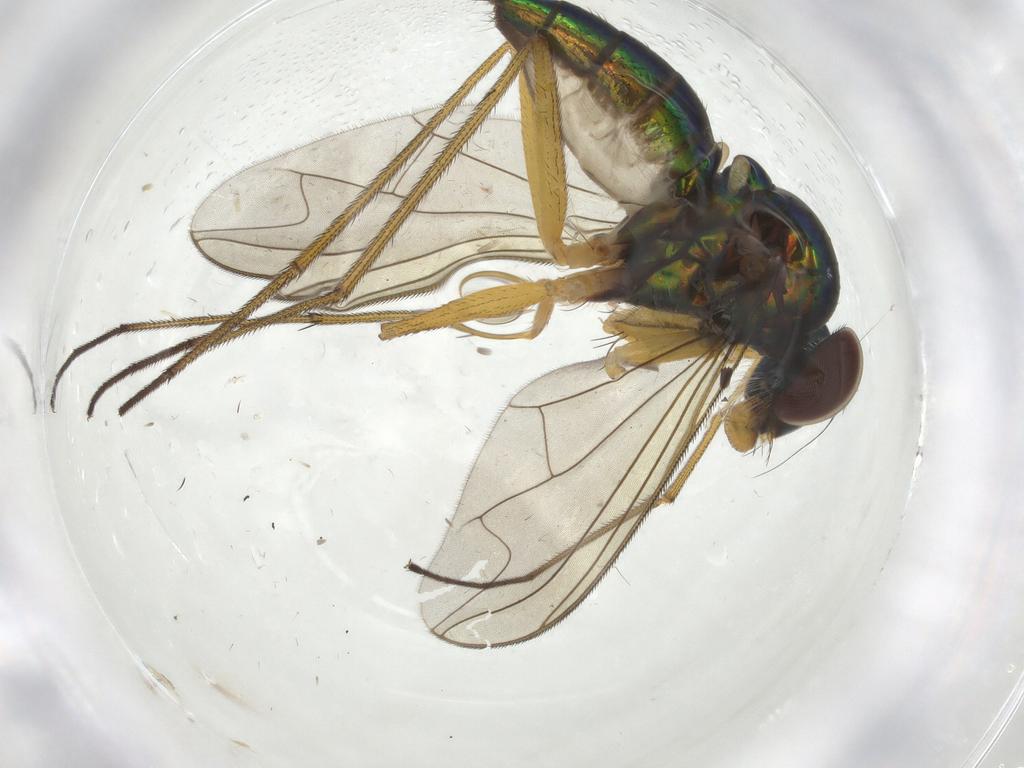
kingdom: Animalia
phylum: Arthropoda
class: Insecta
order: Diptera
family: Dolichopodidae
